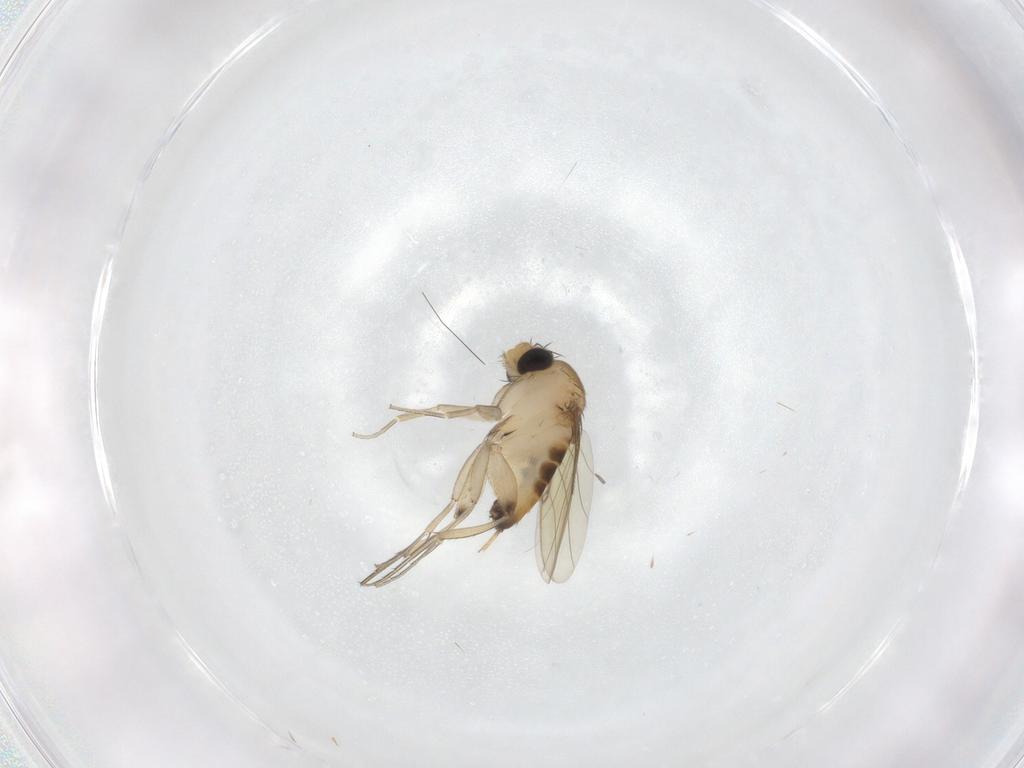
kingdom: Animalia
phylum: Arthropoda
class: Insecta
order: Diptera
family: Phoridae
